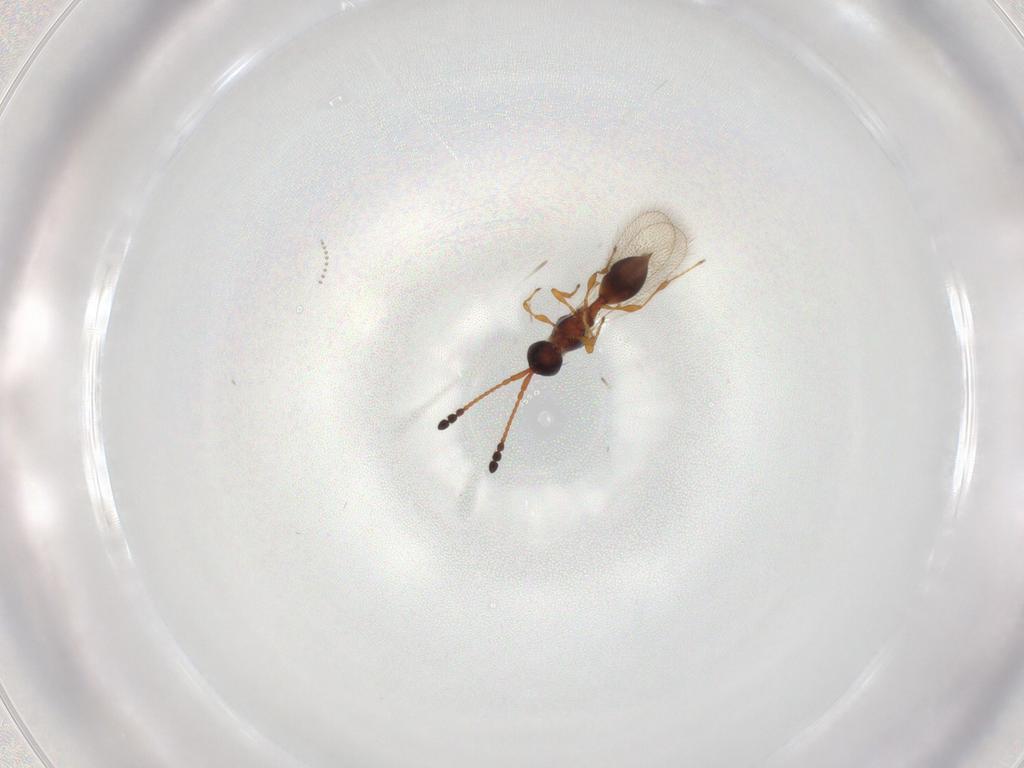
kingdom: Animalia
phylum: Arthropoda
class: Insecta
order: Hymenoptera
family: Diapriidae
